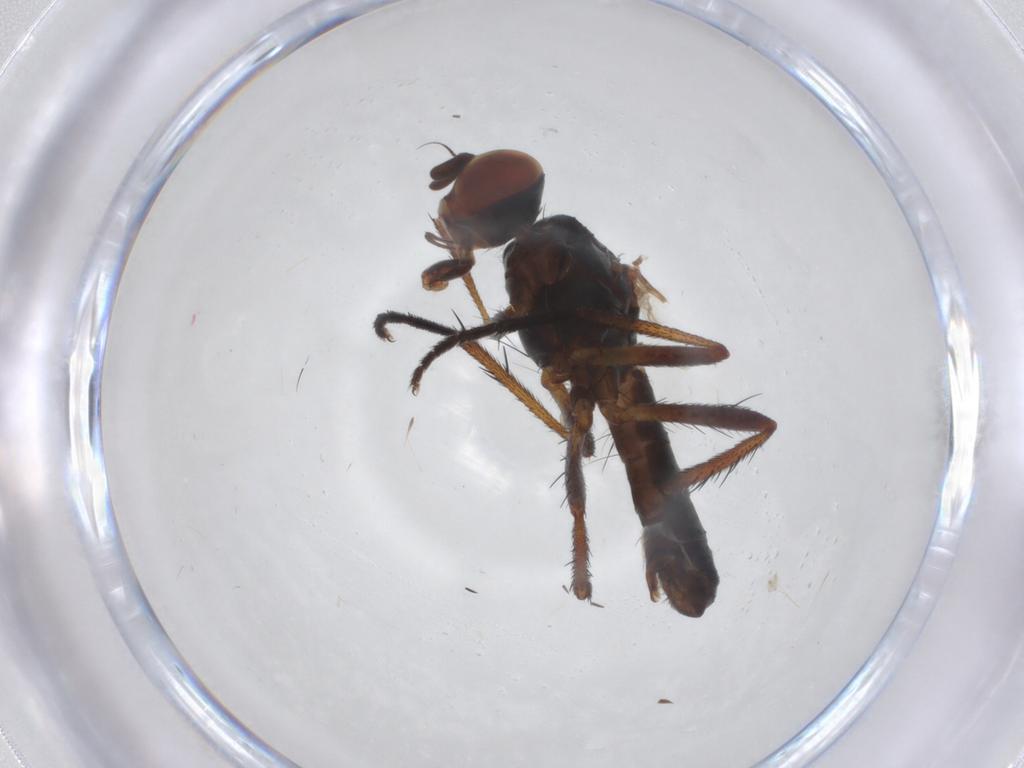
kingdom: Animalia
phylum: Arthropoda
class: Insecta
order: Diptera
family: Anthomyiidae
